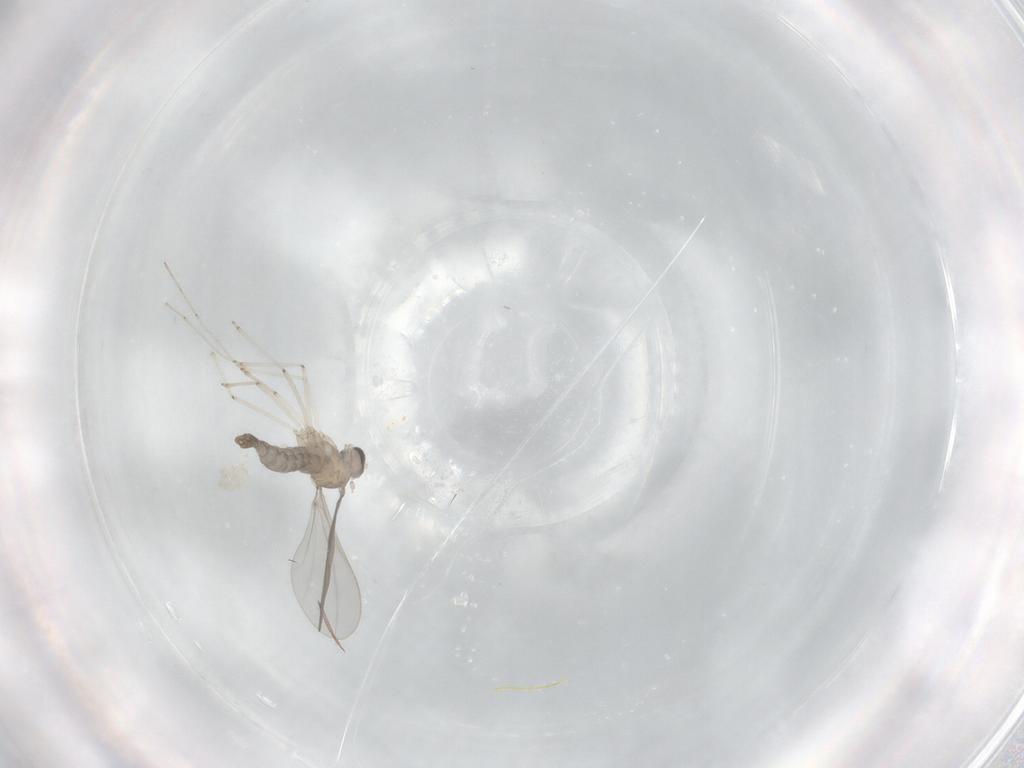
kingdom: Animalia
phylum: Arthropoda
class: Insecta
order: Diptera
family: Cecidomyiidae
